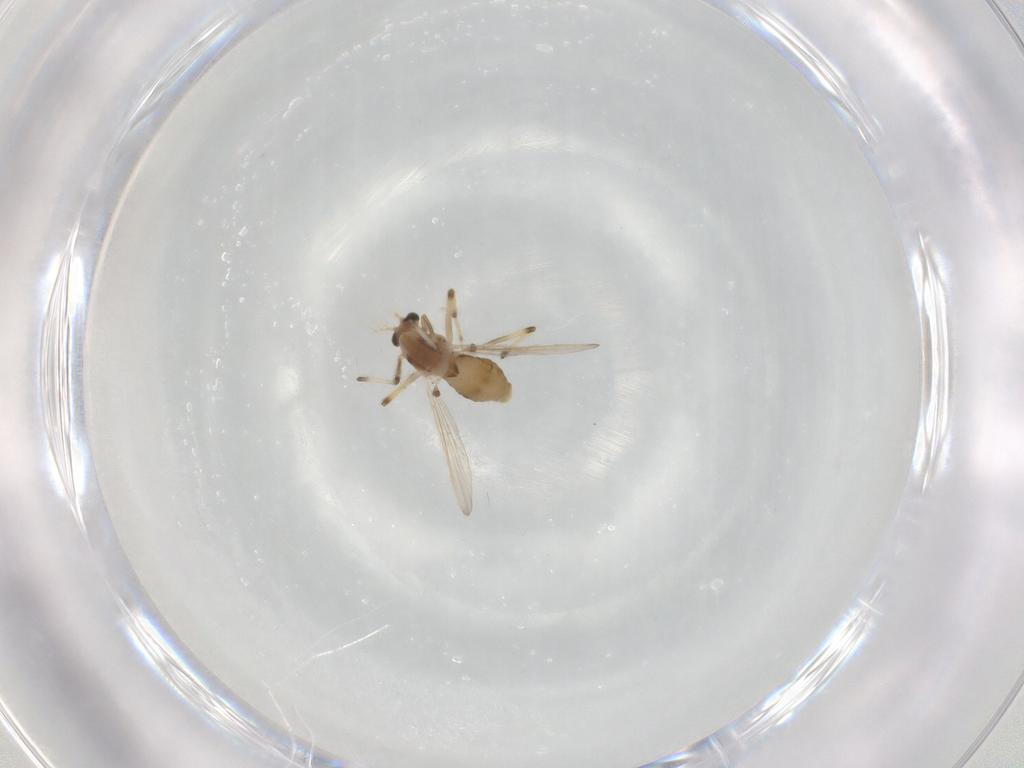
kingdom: Animalia
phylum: Arthropoda
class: Insecta
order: Diptera
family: Chironomidae
